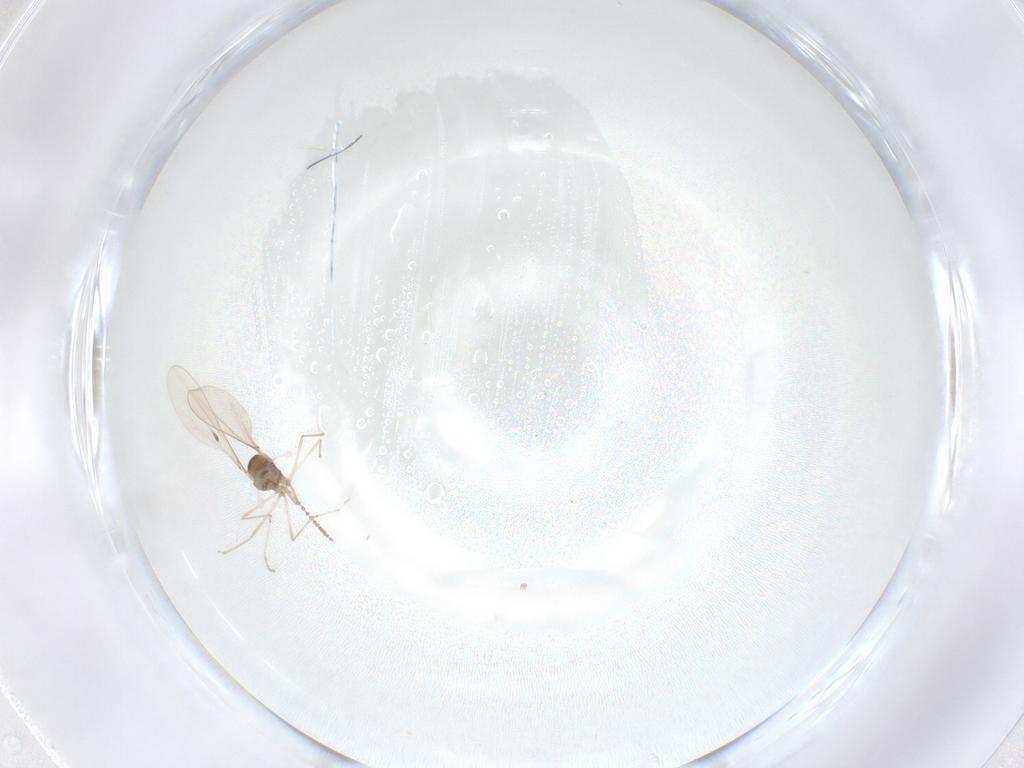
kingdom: Animalia
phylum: Arthropoda
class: Insecta
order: Diptera
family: Cecidomyiidae
